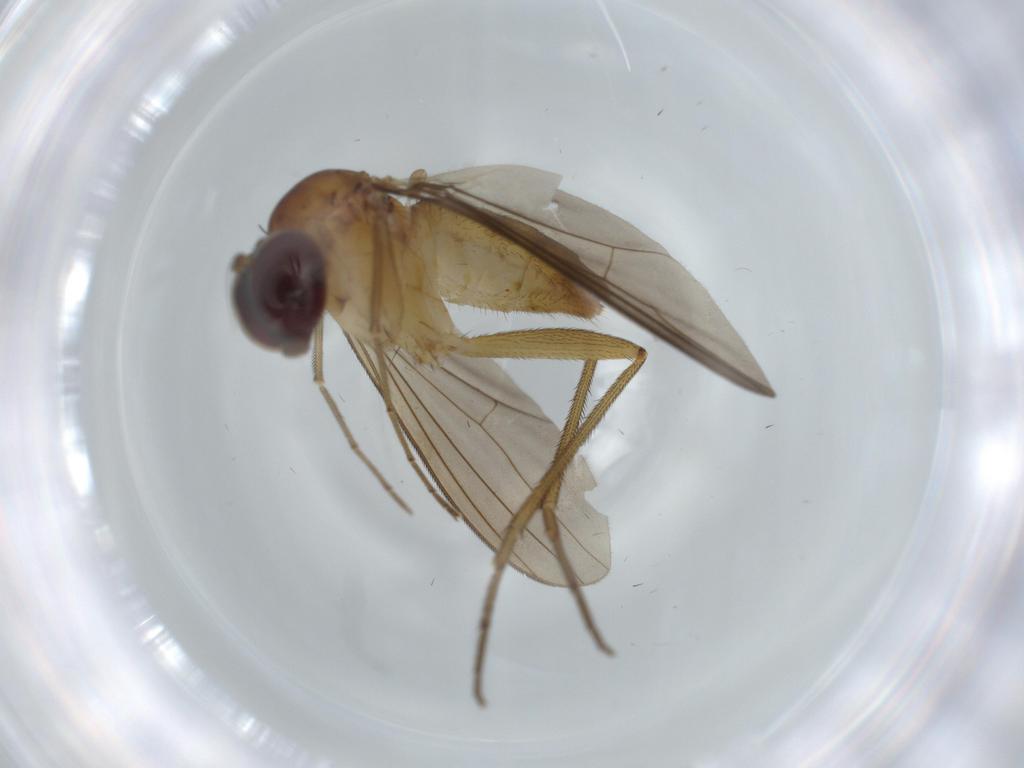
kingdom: Animalia
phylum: Arthropoda
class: Insecta
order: Diptera
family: Dolichopodidae
